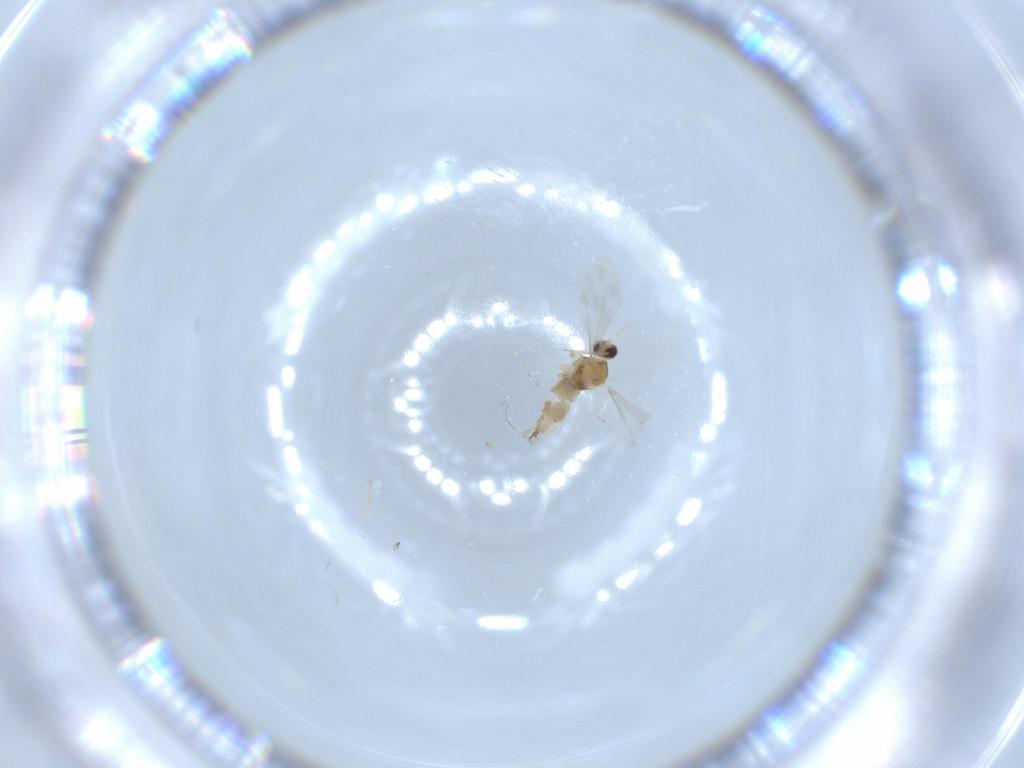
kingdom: Animalia
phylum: Arthropoda
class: Insecta
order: Diptera
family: Cecidomyiidae
